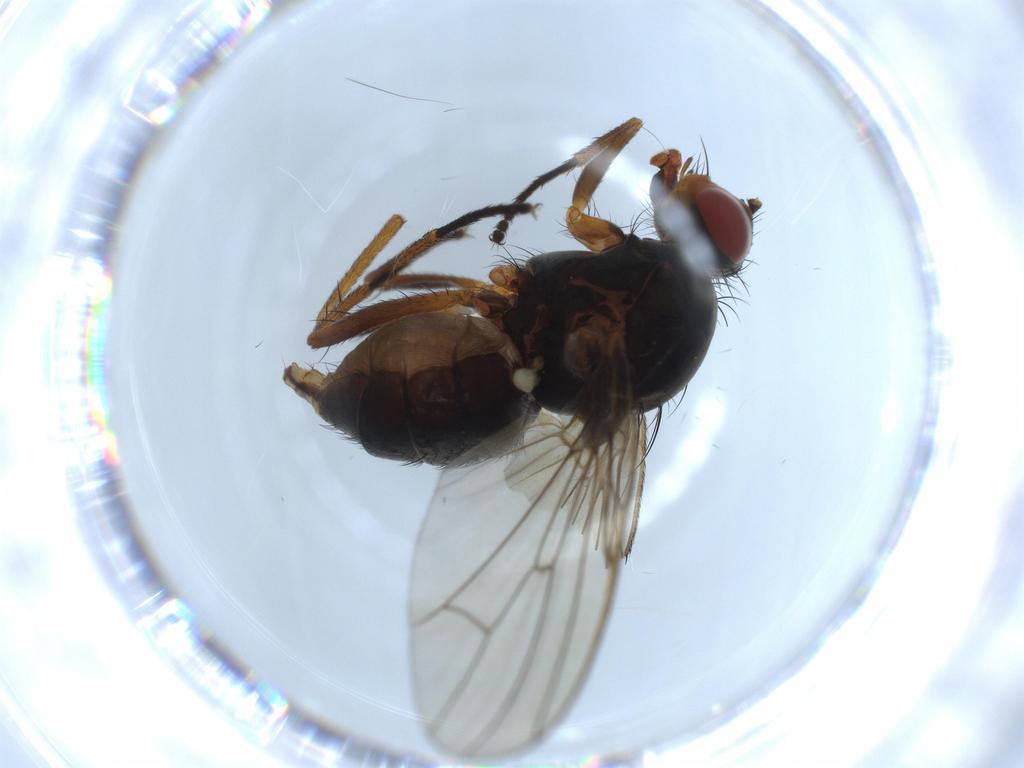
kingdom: Animalia
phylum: Arthropoda
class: Insecta
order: Diptera
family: Anthomyiidae
